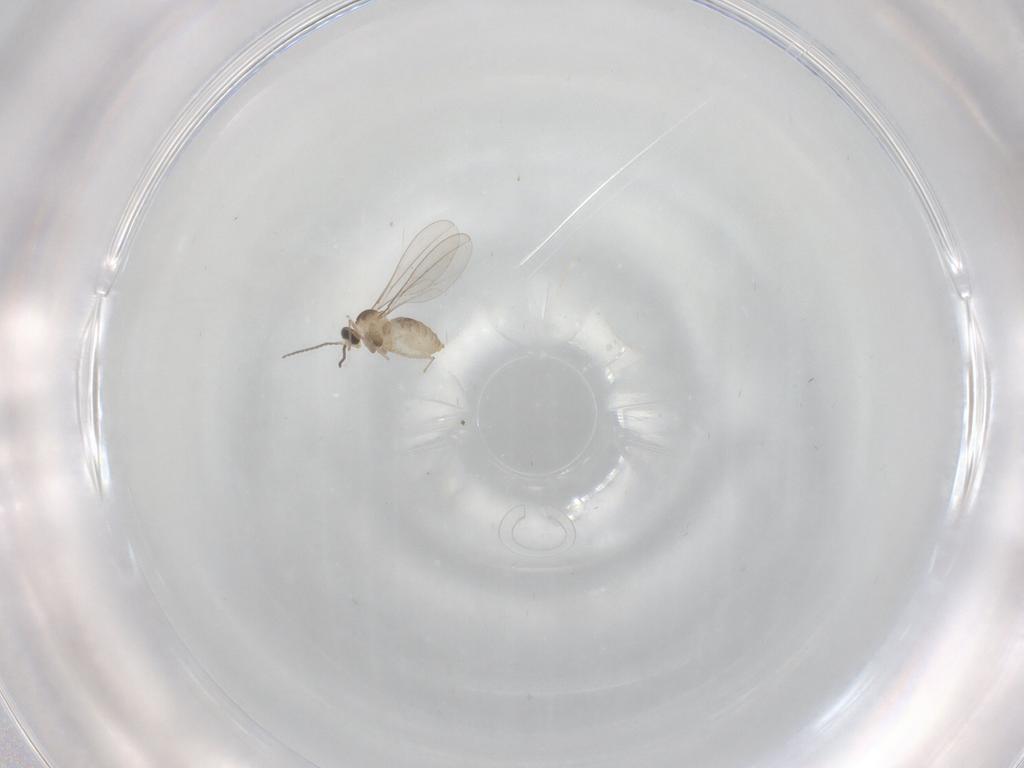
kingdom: Animalia
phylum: Arthropoda
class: Insecta
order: Diptera
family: Cecidomyiidae
